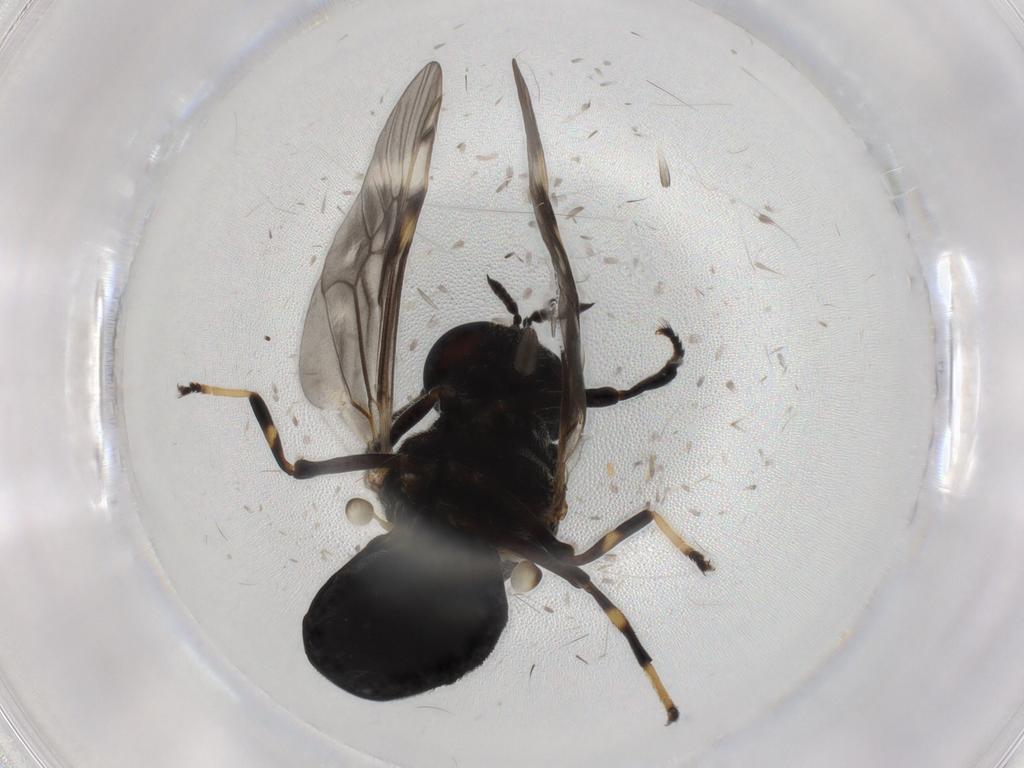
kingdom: Animalia
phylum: Arthropoda
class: Insecta
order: Diptera
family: Stratiomyidae
